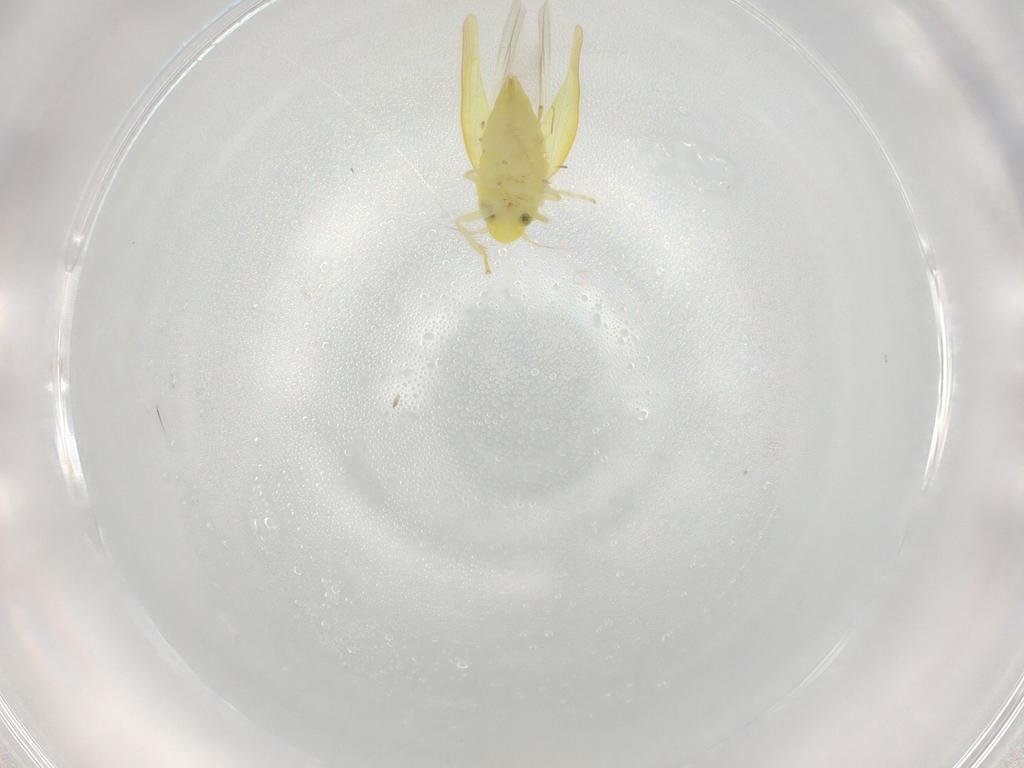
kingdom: Animalia
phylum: Arthropoda
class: Insecta
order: Hemiptera
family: Cicadellidae
